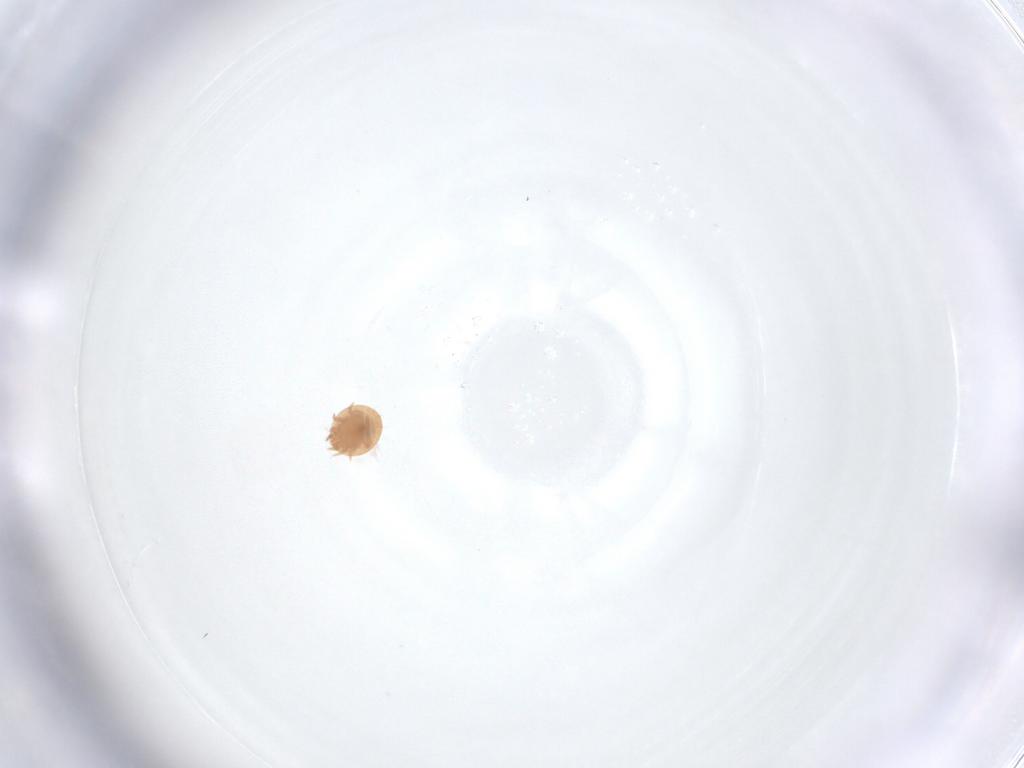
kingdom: Animalia
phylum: Arthropoda
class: Arachnida
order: Mesostigmata
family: Trematuridae
